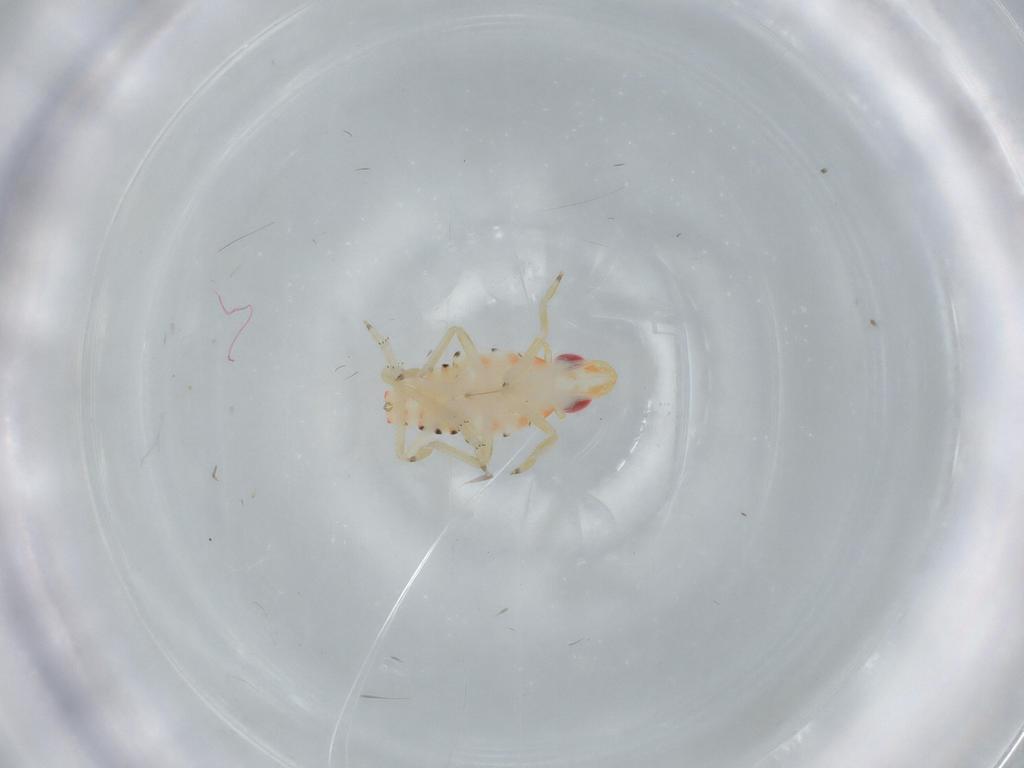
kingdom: Animalia
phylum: Arthropoda
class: Insecta
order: Hemiptera
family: Tropiduchidae
